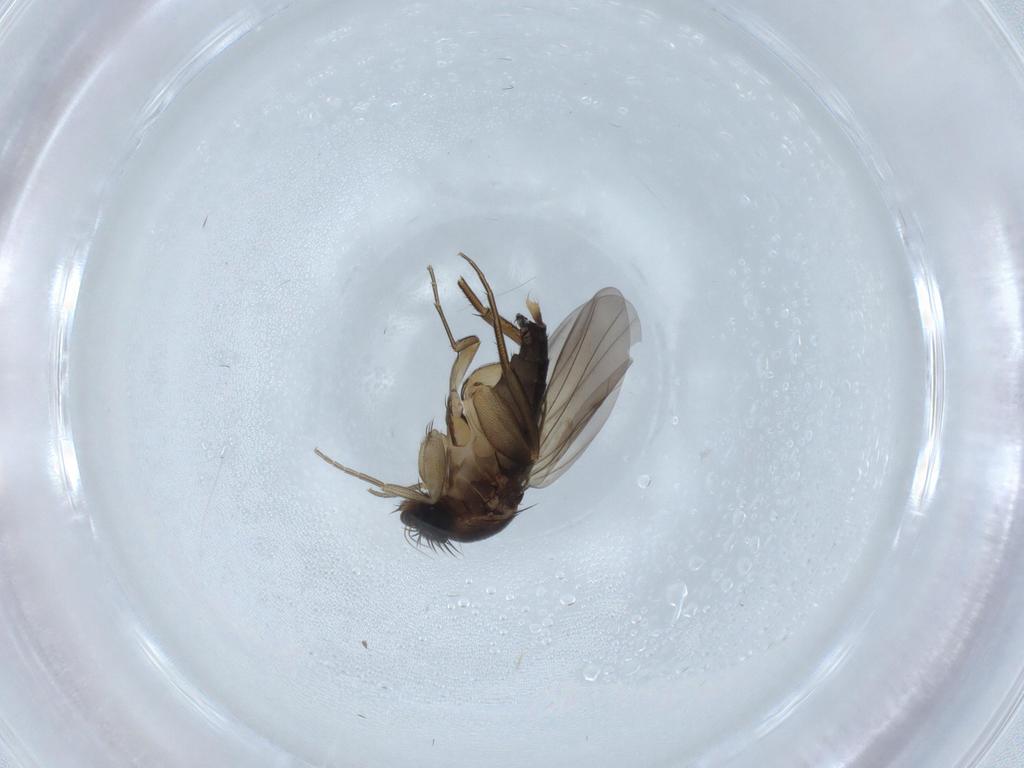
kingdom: Animalia
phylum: Arthropoda
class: Insecta
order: Diptera
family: Phoridae
